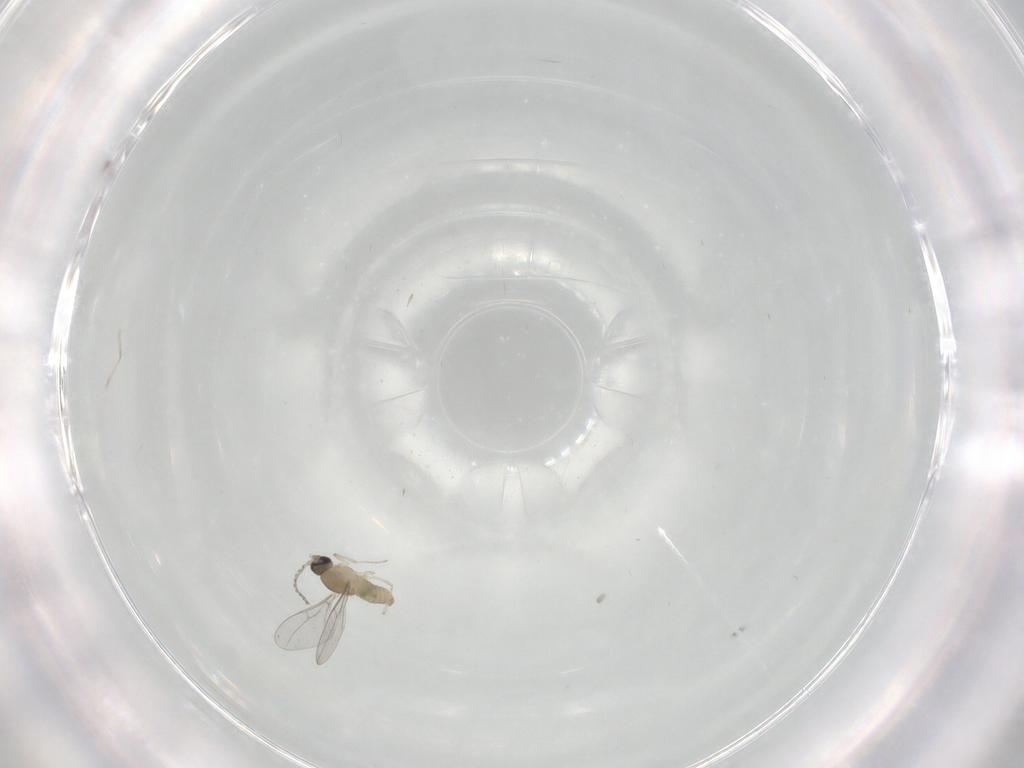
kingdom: Animalia
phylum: Arthropoda
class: Insecta
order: Diptera
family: Cecidomyiidae
